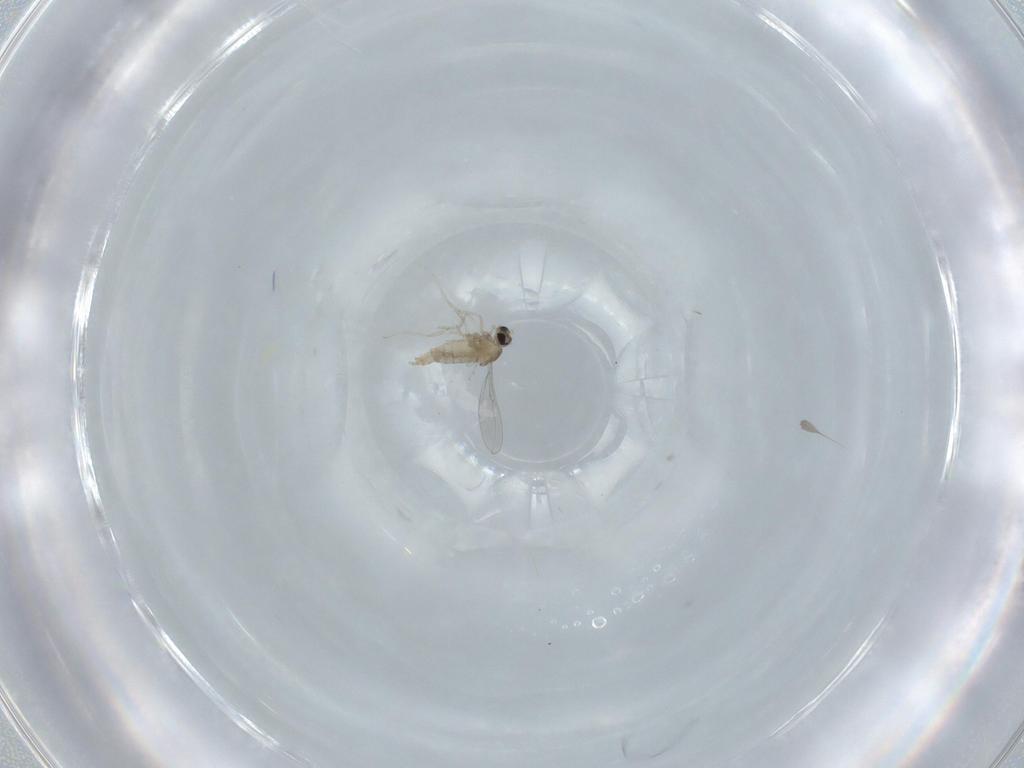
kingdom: Animalia
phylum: Arthropoda
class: Insecta
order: Diptera
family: Cecidomyiidae
